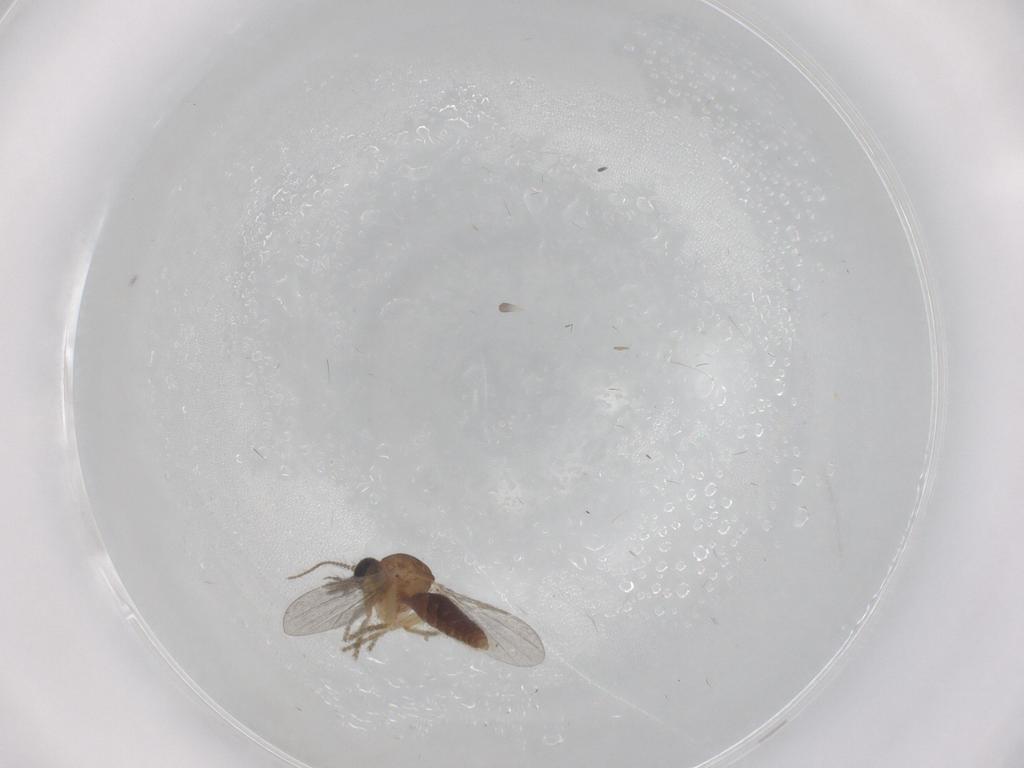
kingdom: Animalia
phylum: Arthropoda
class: Insecta
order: Diptera
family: Ceratopogonidae
